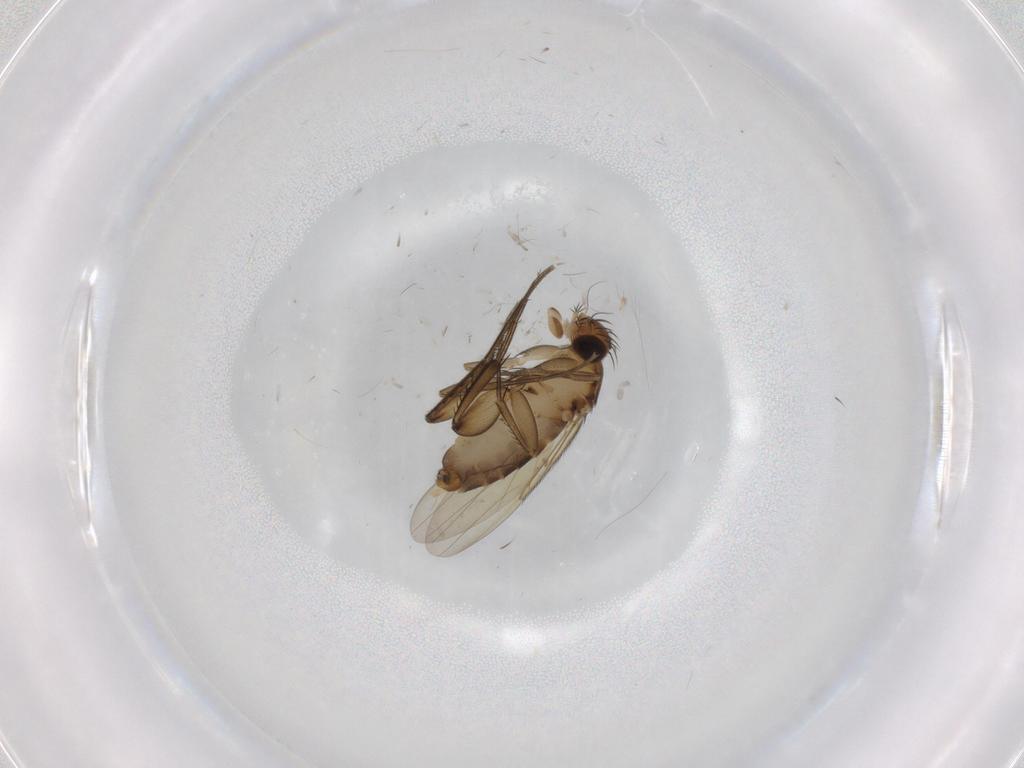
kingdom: Animalia
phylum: Arthropoda
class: Insecta
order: Diptera
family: Phoridae
